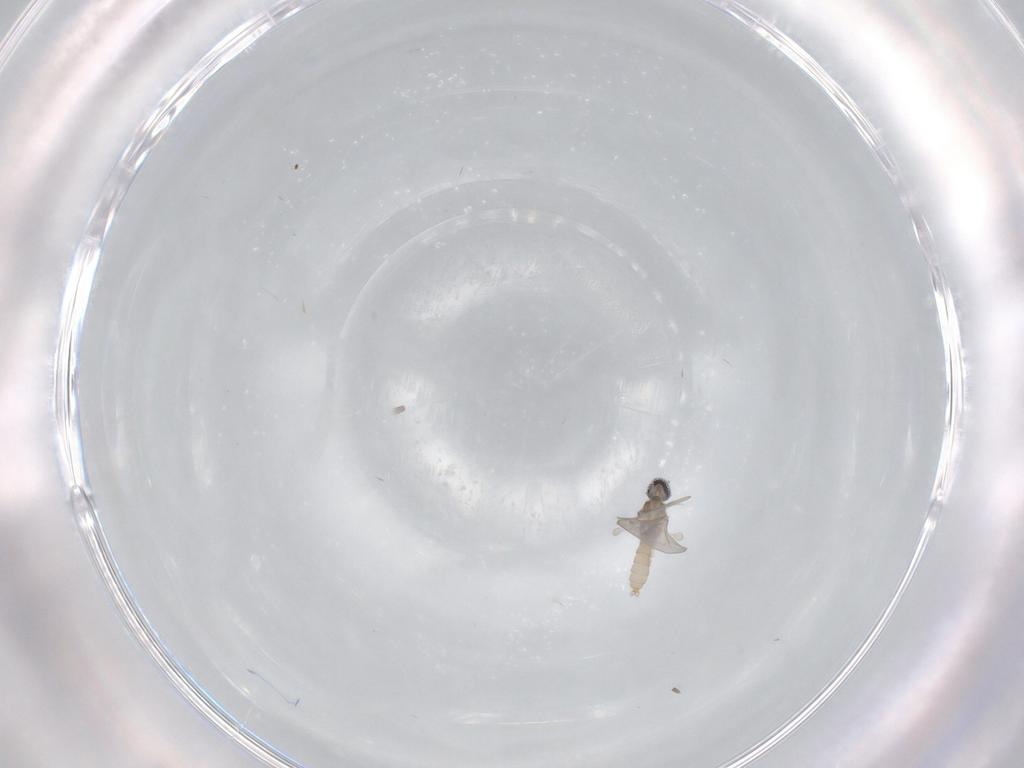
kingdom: Animalia
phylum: Arthropoda
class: Insecta
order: Diptera
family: Cecidomyiidae
